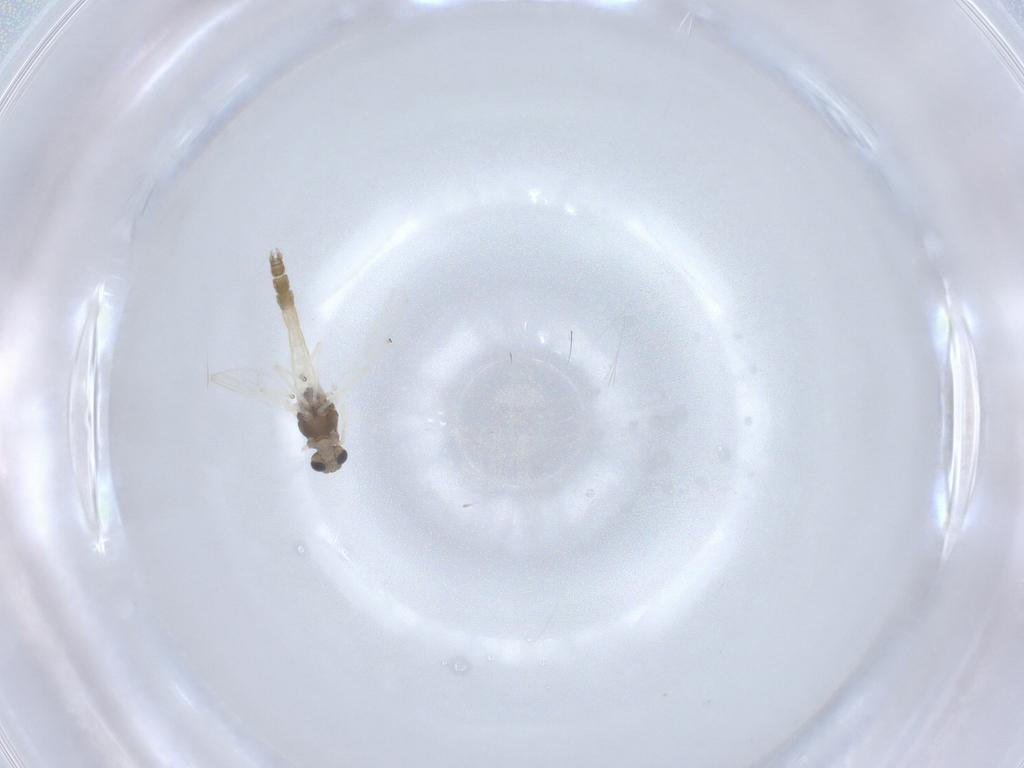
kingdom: Animalia
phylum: Arthropoda
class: Insecta
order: Diptera
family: Chironomidae
